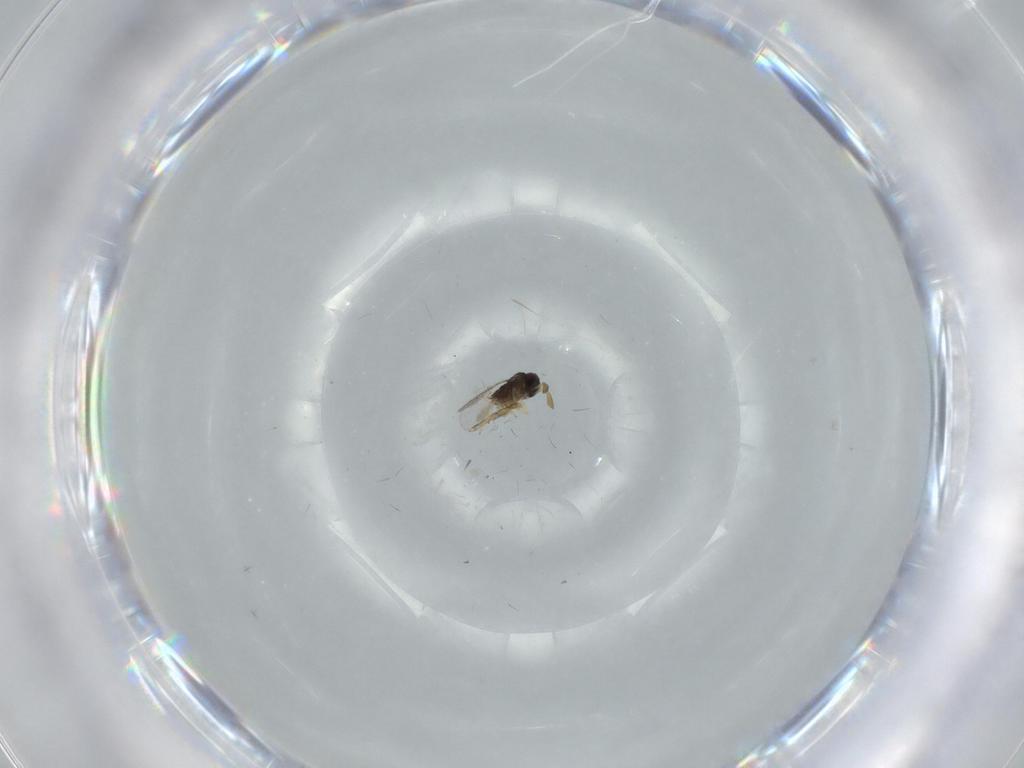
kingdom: Animalia
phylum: Arthropoda
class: Insecta
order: Hymenoptera
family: Encyrtidae
